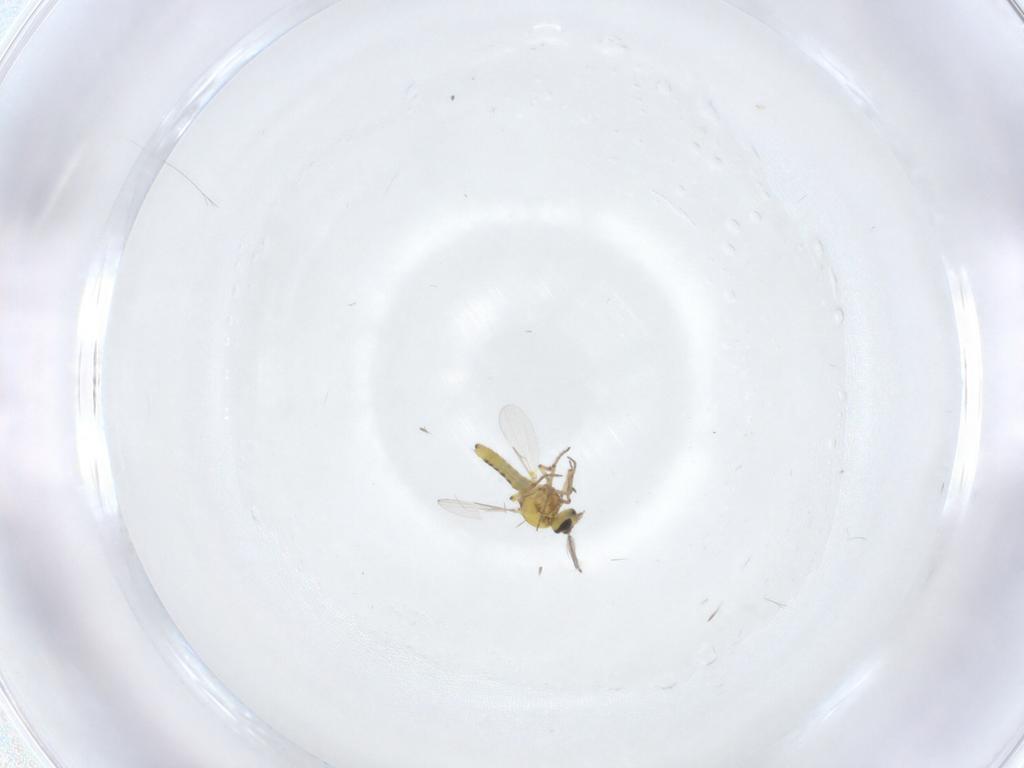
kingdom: Animalia
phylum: Arthropoda
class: Insecta
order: Diptera
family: Ceratopogonidae
